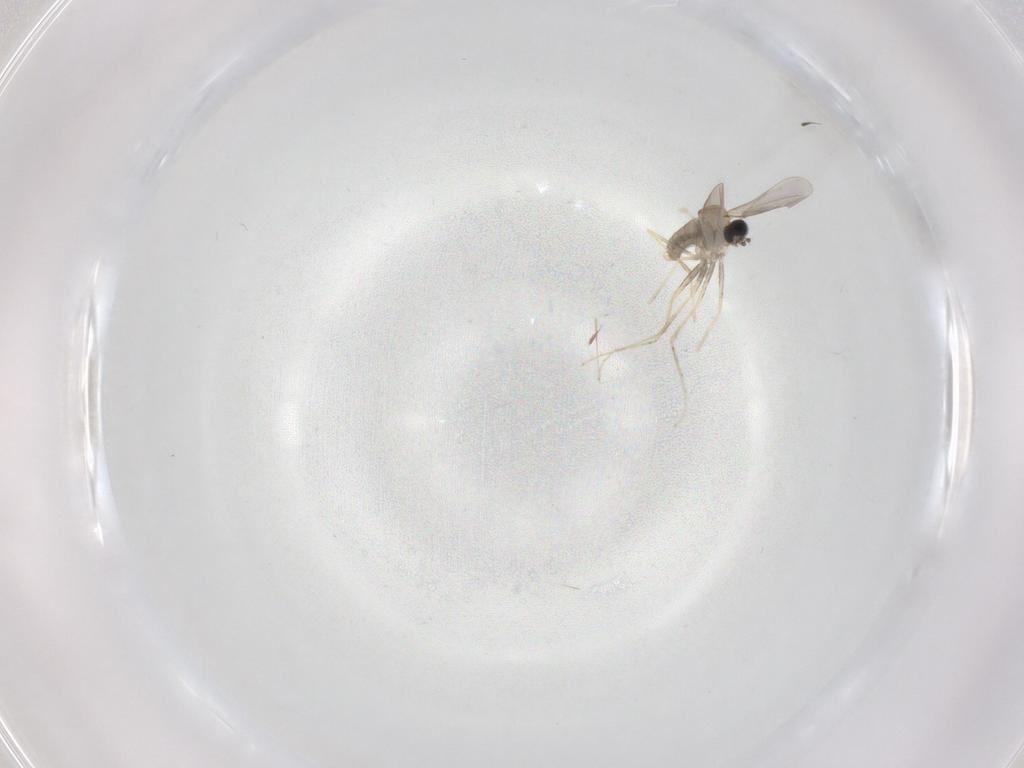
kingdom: Animalia
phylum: Arthropoda
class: Insecta
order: Diptera
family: Cecidomyiidae
